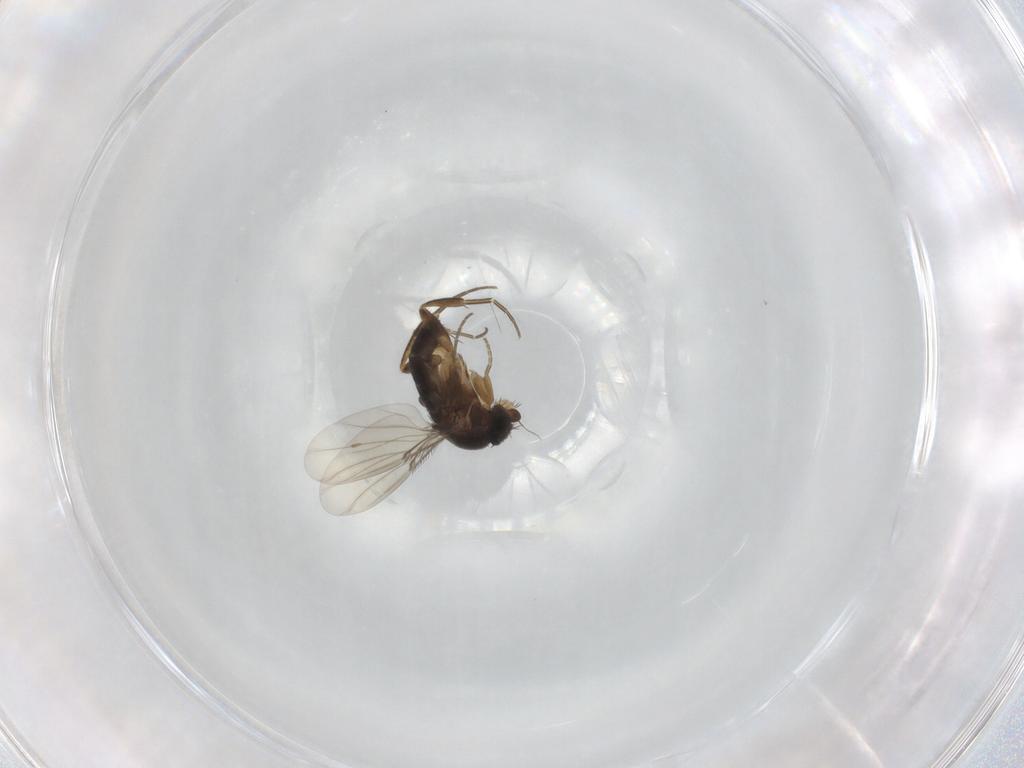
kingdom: Animalia
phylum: Arthropoda
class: Insecta
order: Diptera
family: Phoridae
